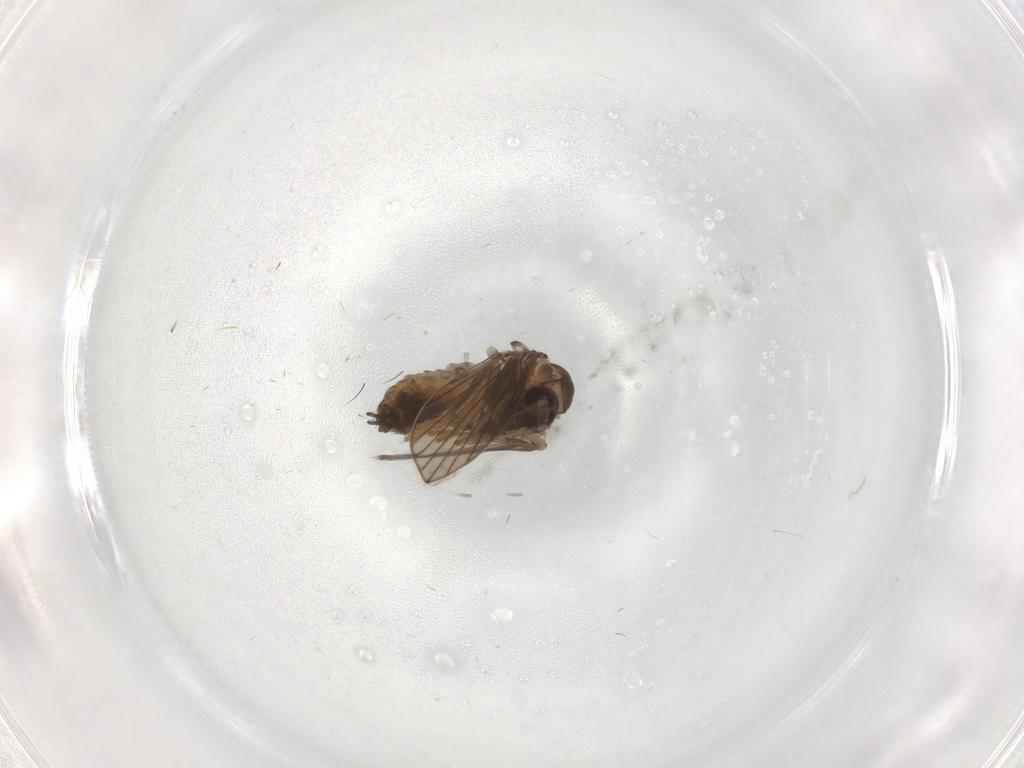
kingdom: Animalia
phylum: Arthropoda
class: Insecta
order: Diptera
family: Psychodidae
